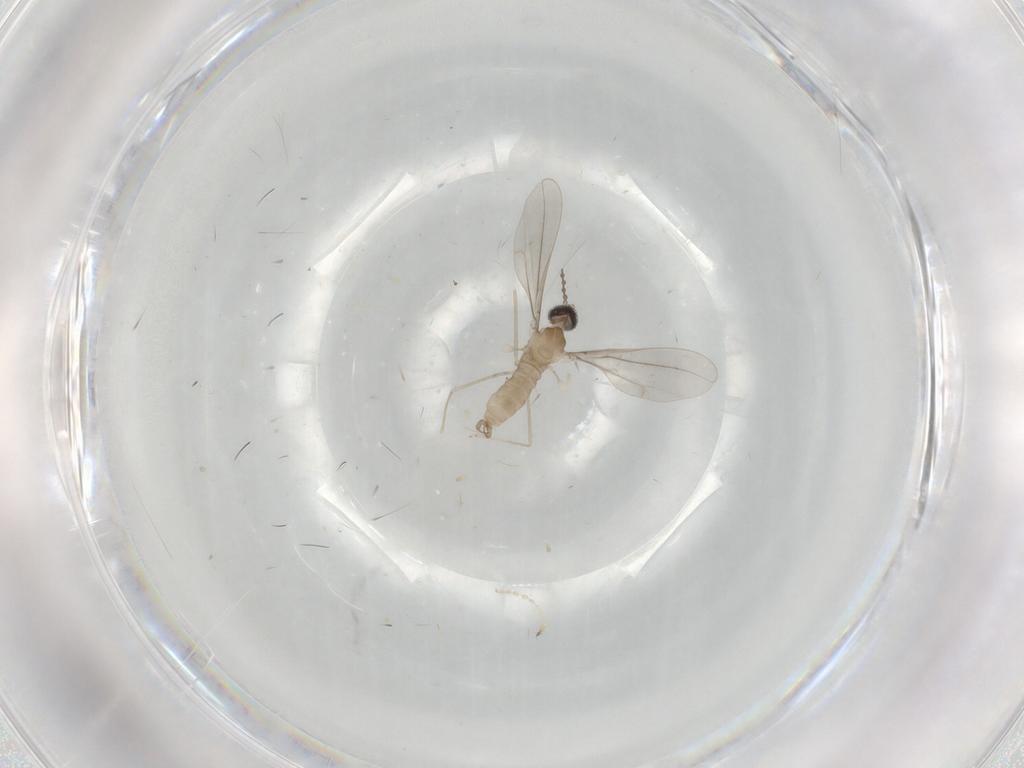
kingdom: Animalia
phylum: Arthropoda
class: Insecta
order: Diptera
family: Cecidomyiidae
